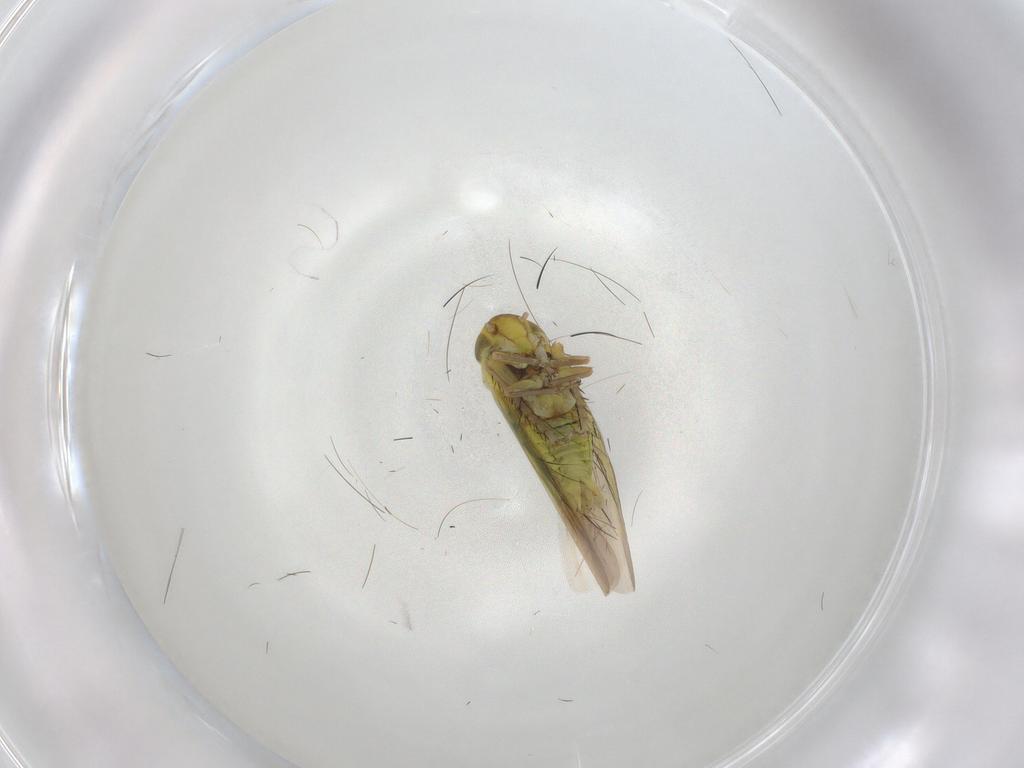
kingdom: Animalia
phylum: Arthropoda
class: Insecta
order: Hemiptera
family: Cicadellidae
